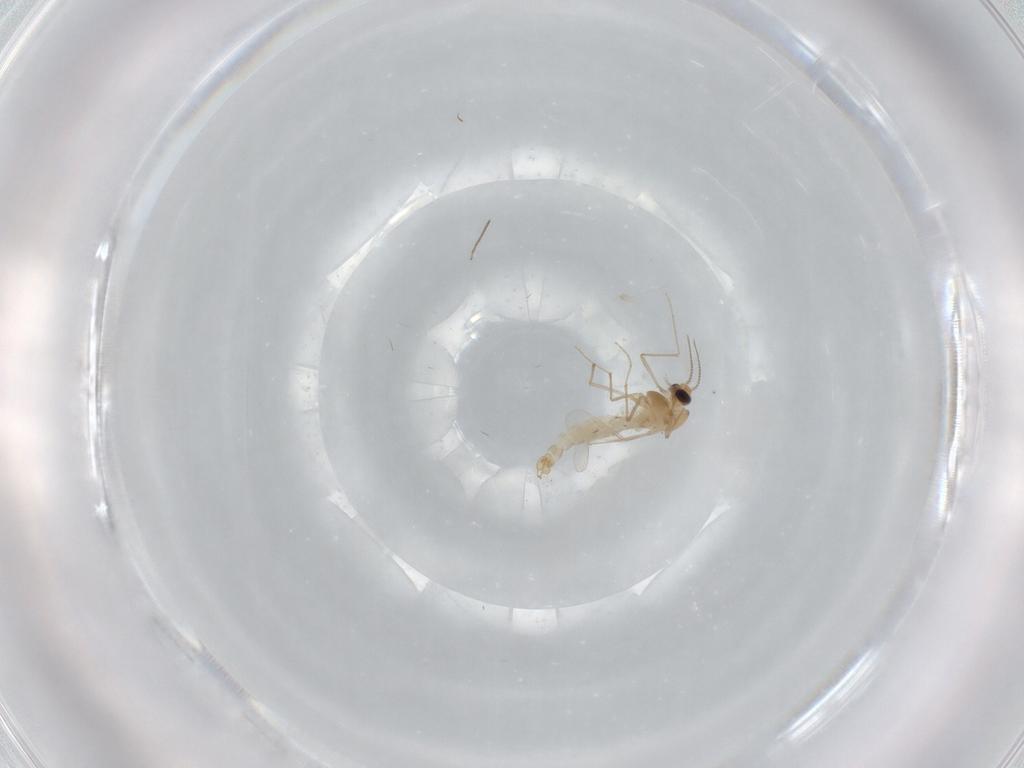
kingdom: Animalia
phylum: Arthropoda
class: Insecta
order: Diptera
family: Chironomidae
